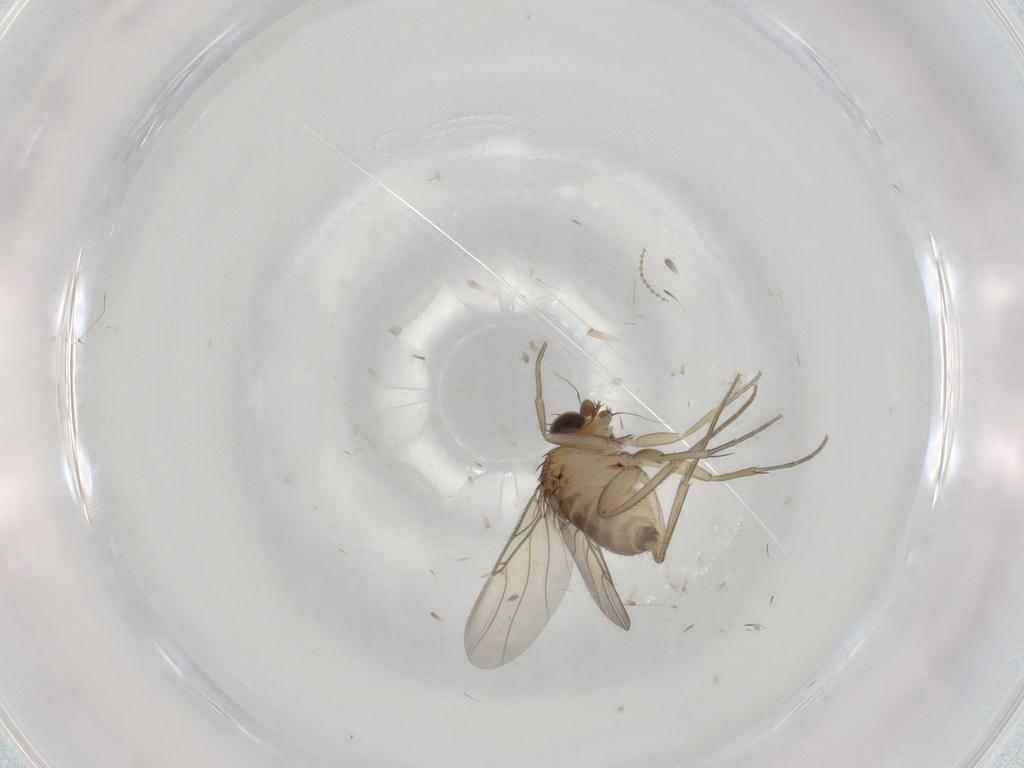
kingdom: Animalia
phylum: Arthropoda
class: Insecta
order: Diptera
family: Phoridae
